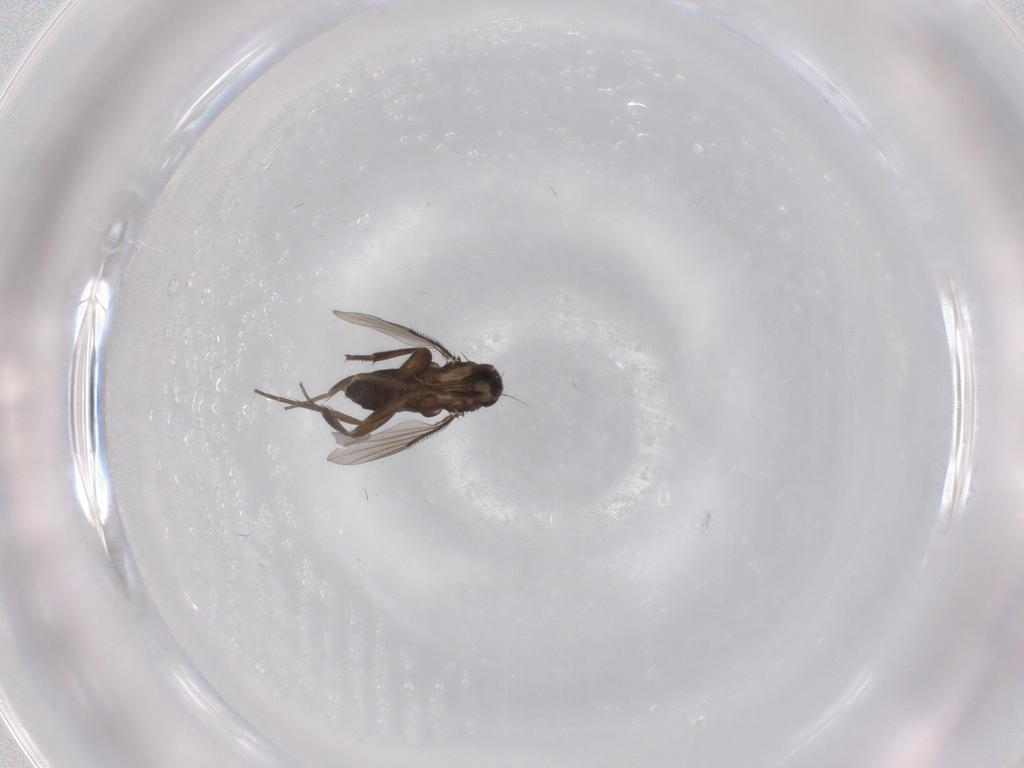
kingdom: Animalia
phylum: Arthropoda
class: Insecta
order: Diptera
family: Phoridae
